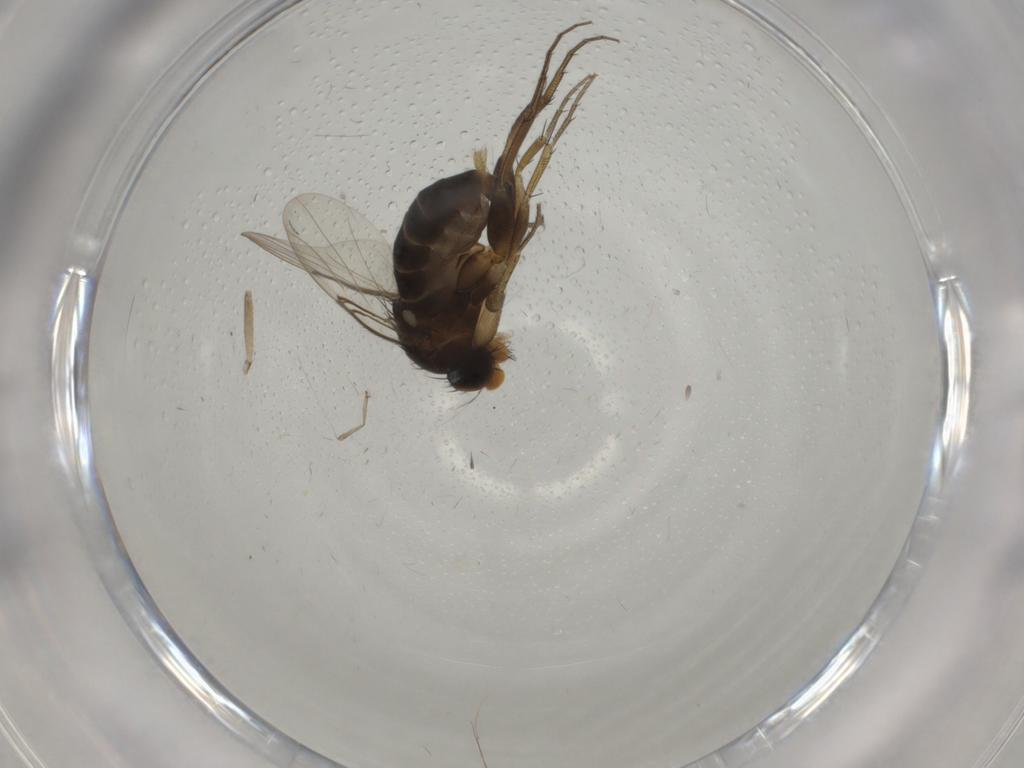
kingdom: Animalia
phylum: Arthropoda
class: Insecta
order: Diptera
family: Phoridae
